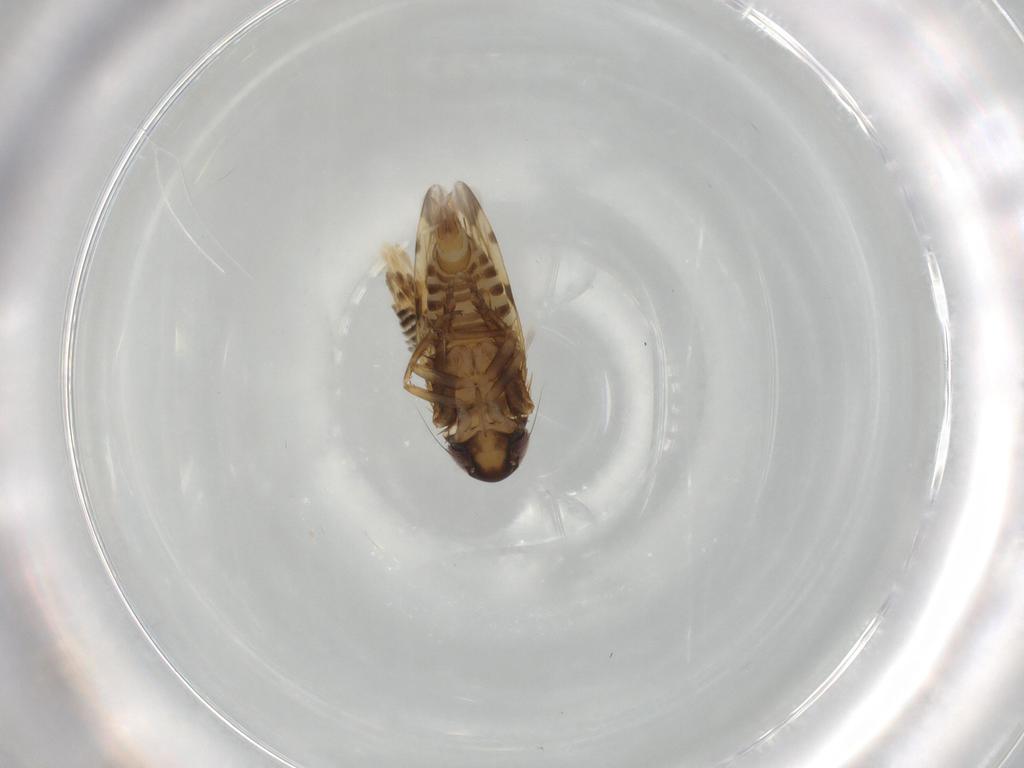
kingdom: Animalia
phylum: Arthropoda
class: Insecta
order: Hemiptera
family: Cicadellidae
